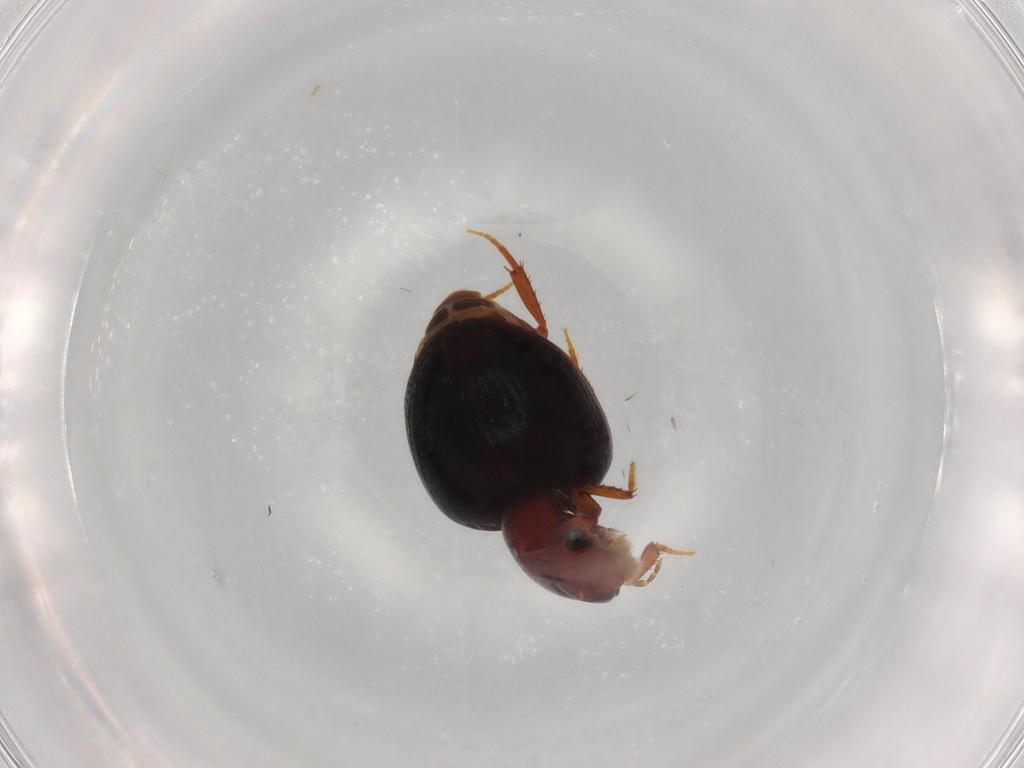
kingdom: Animalia
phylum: Arthropoda
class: Insecta
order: Coleoptera
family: Hydrophilidae
